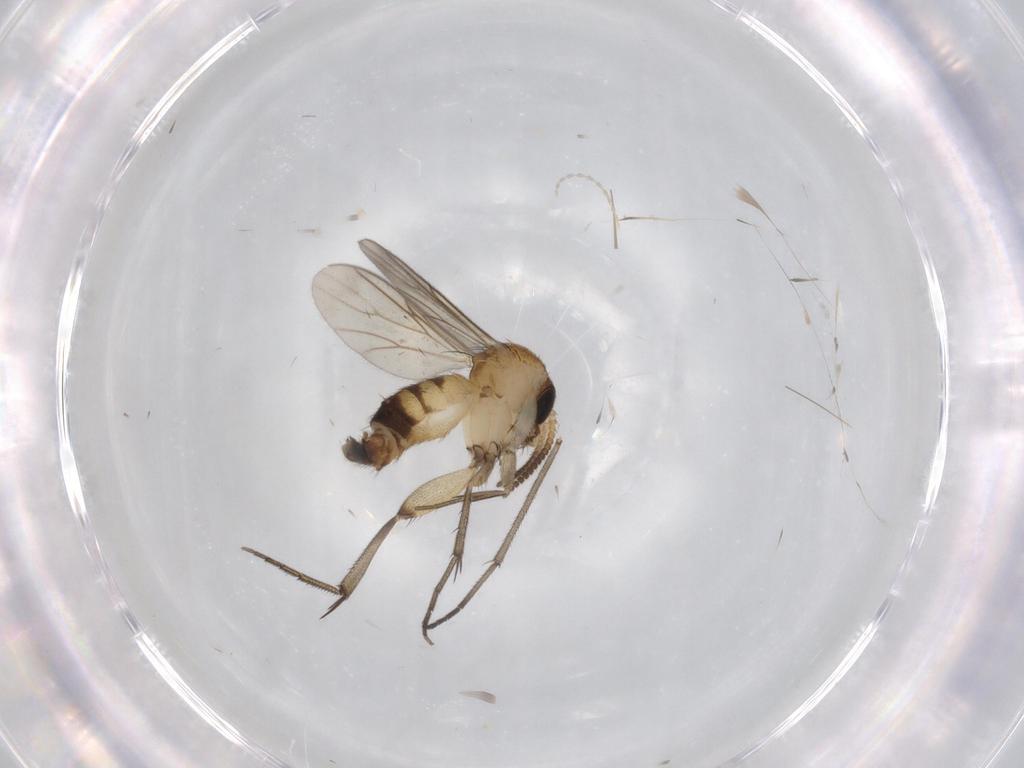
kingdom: Animalia
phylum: Arthropoda
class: Insecta
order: Diptera
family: Mycetophilidae
